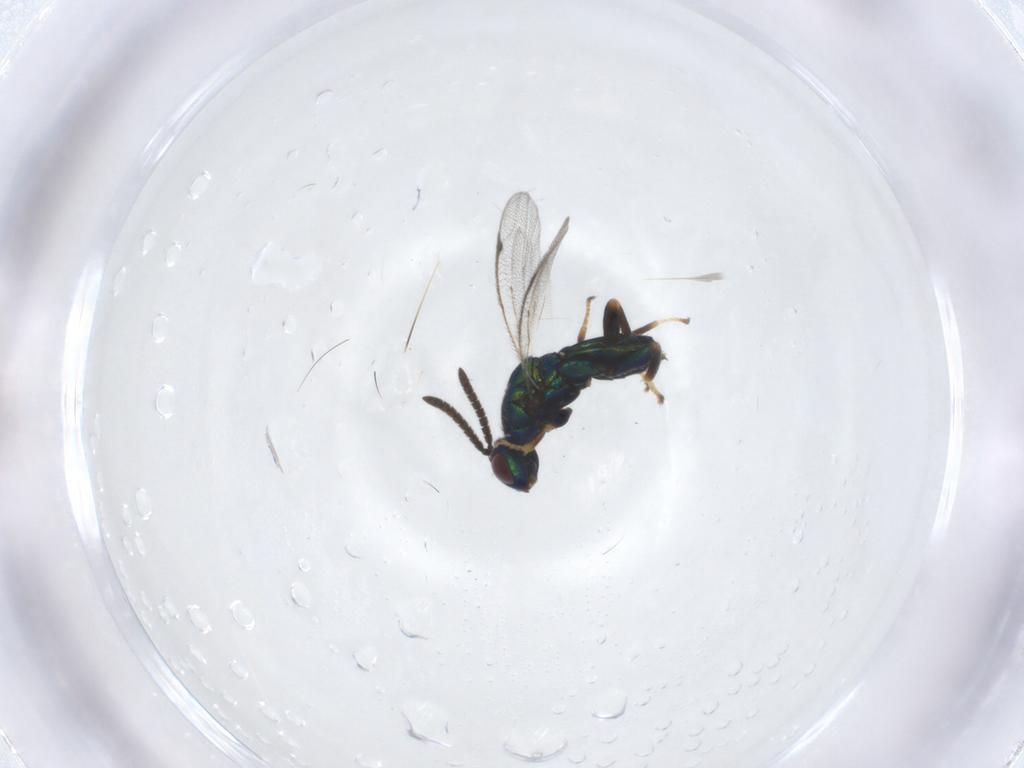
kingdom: Animalia
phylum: Arthropoda
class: Insecta
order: Hymenoptera
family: Torymidae
